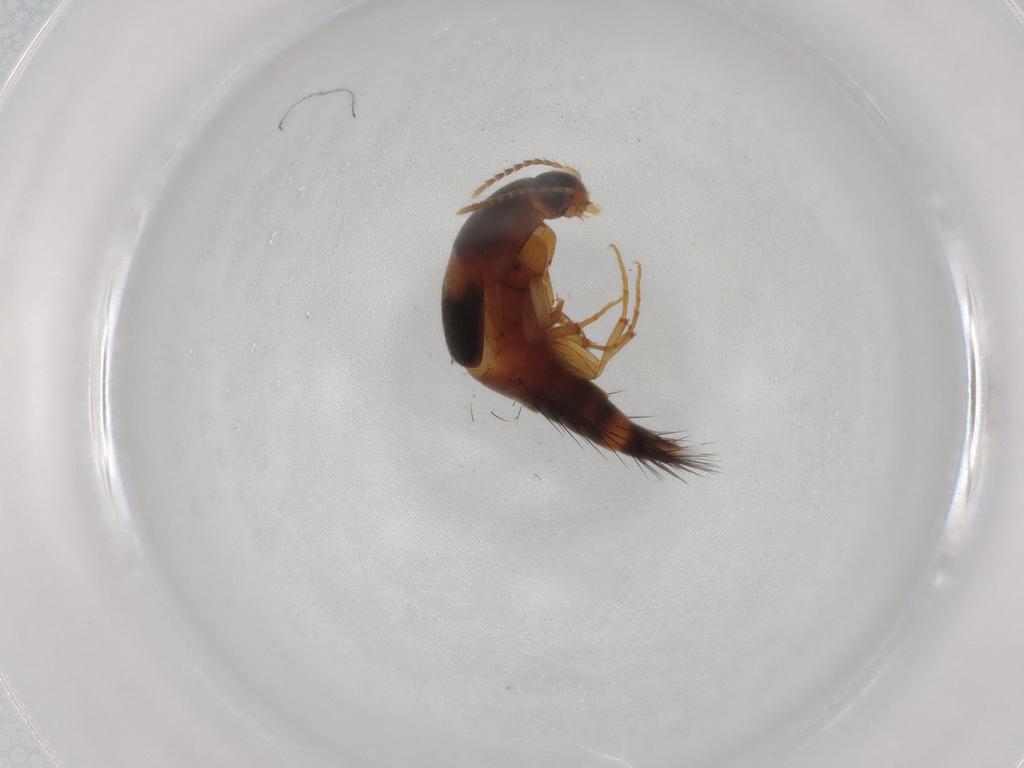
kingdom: Animalia
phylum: Arthropoda
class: Insecta
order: Coleoptera
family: Staphylinidae
